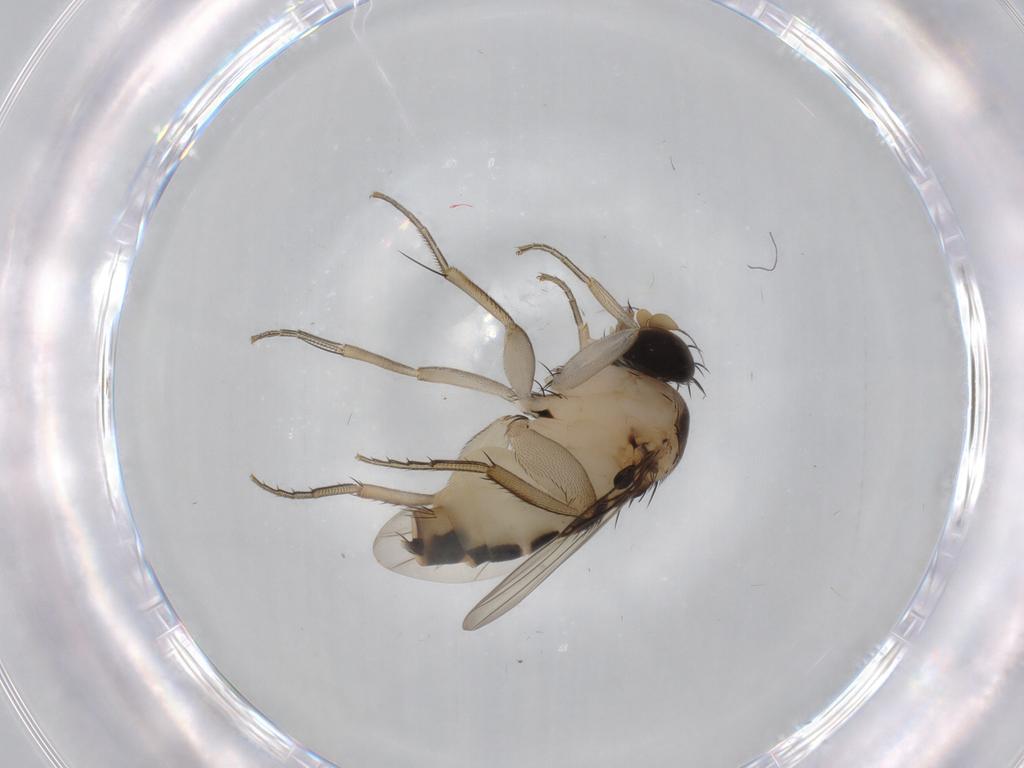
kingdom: Animalia
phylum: Arthropoda
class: Insecta
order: Diptera
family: Phoridae
